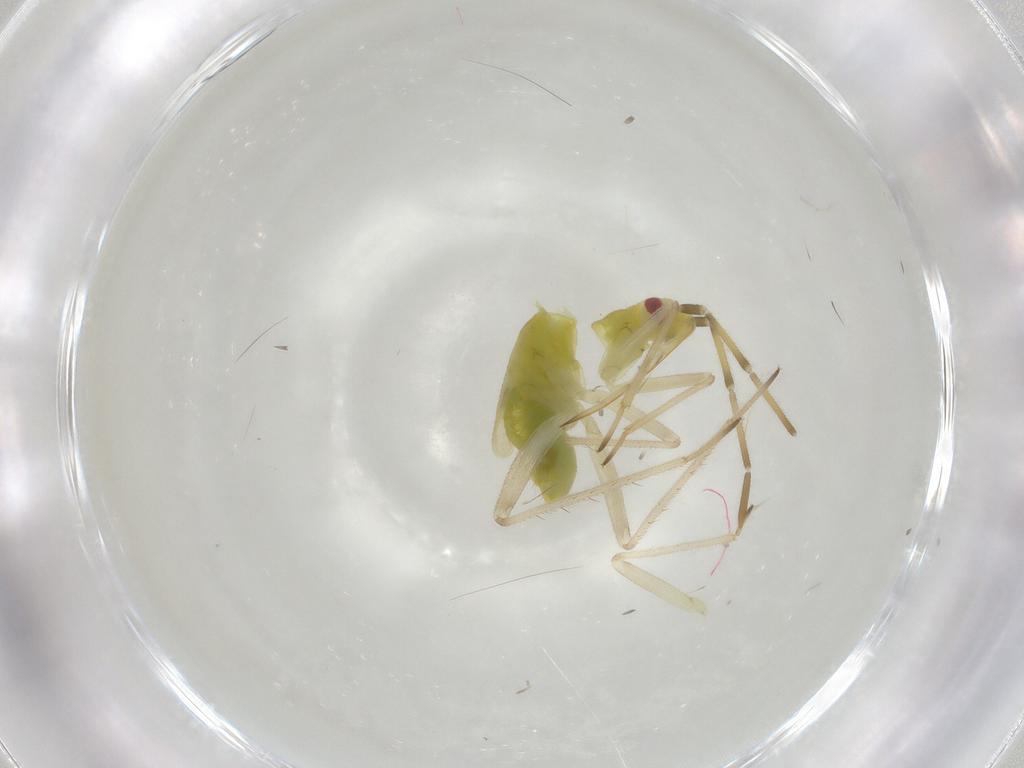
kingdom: Animalia
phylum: Arthropoda
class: Insecta
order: Hemiptera
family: Miridae
